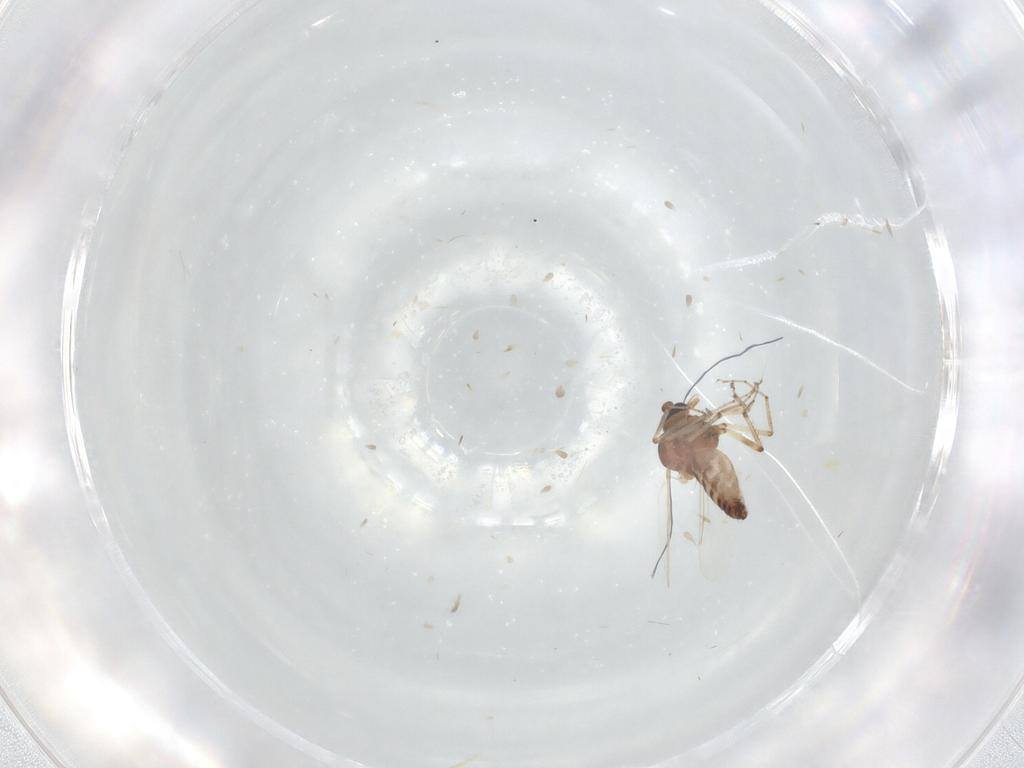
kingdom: Animalia
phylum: Arthropoda
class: Insecta
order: Diptera
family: Ceratopogonidae
